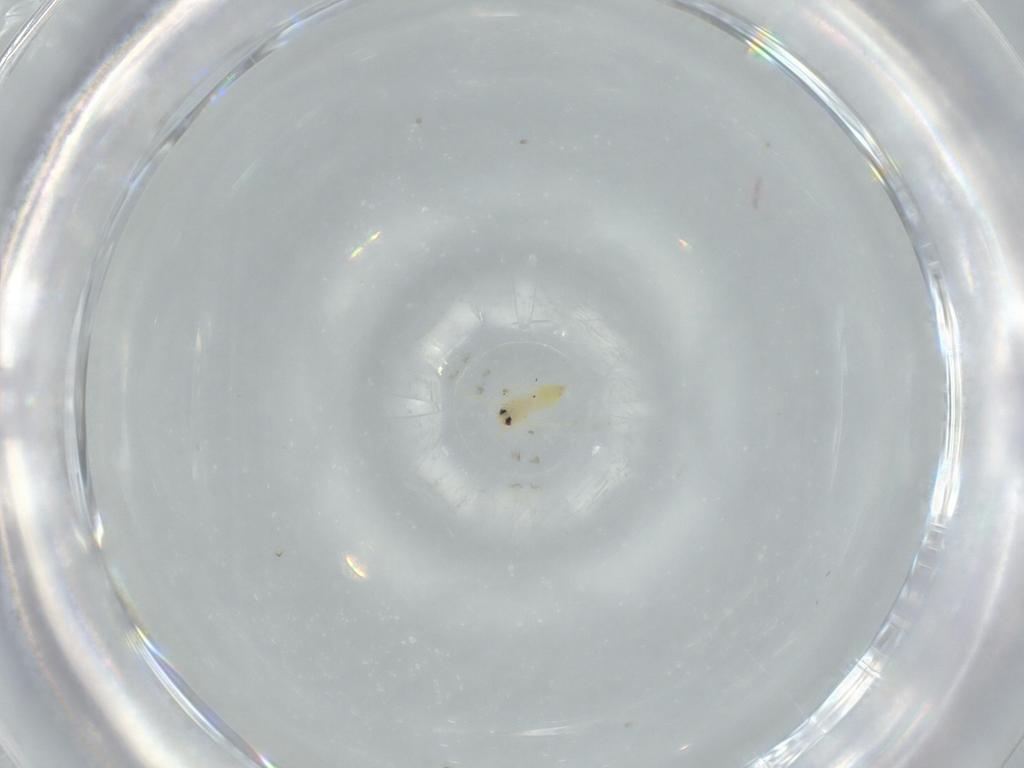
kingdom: Animalia
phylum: Arthropoda
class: Insecta
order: Hemiptera
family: Aleyrodidae
